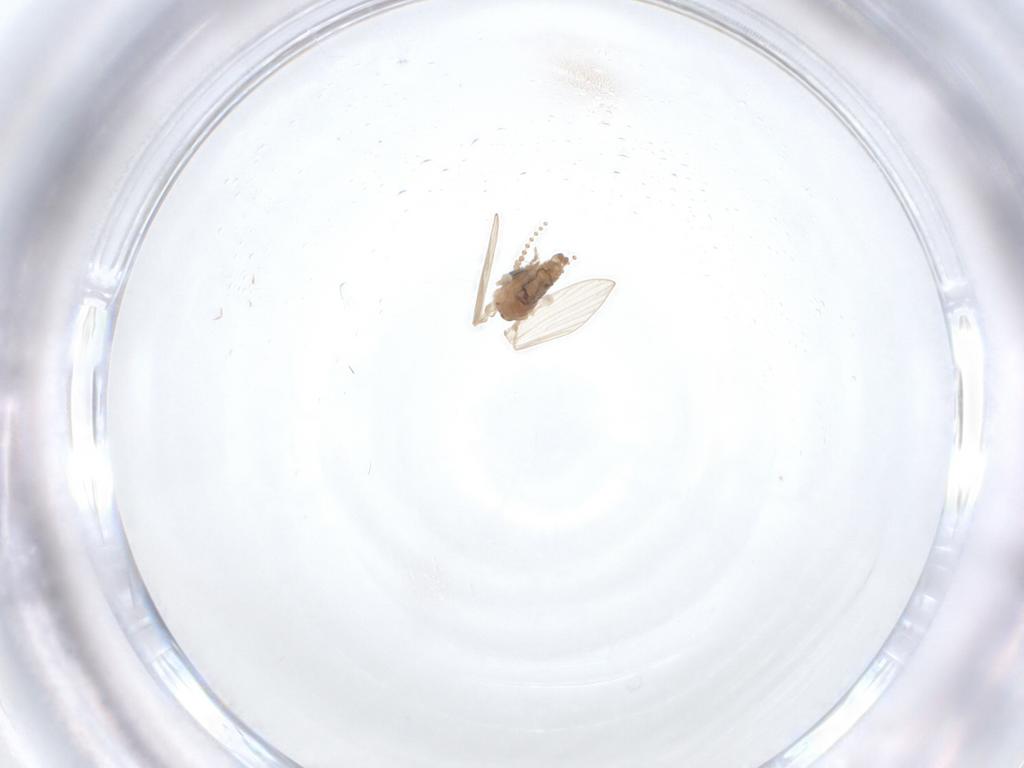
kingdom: Animalia
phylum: Arthropoda
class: Insecta
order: Diptera
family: Psychodidae
